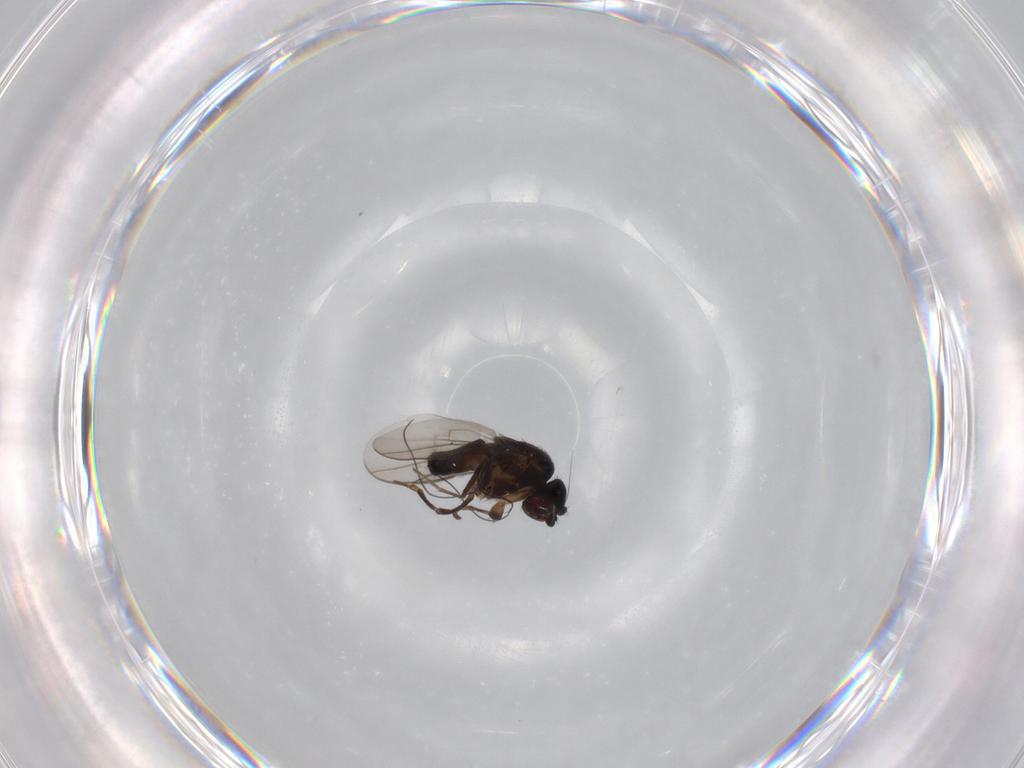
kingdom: Animalia
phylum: Arthropoda
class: Insecta
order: Diptera
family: Sphaeroceridae
